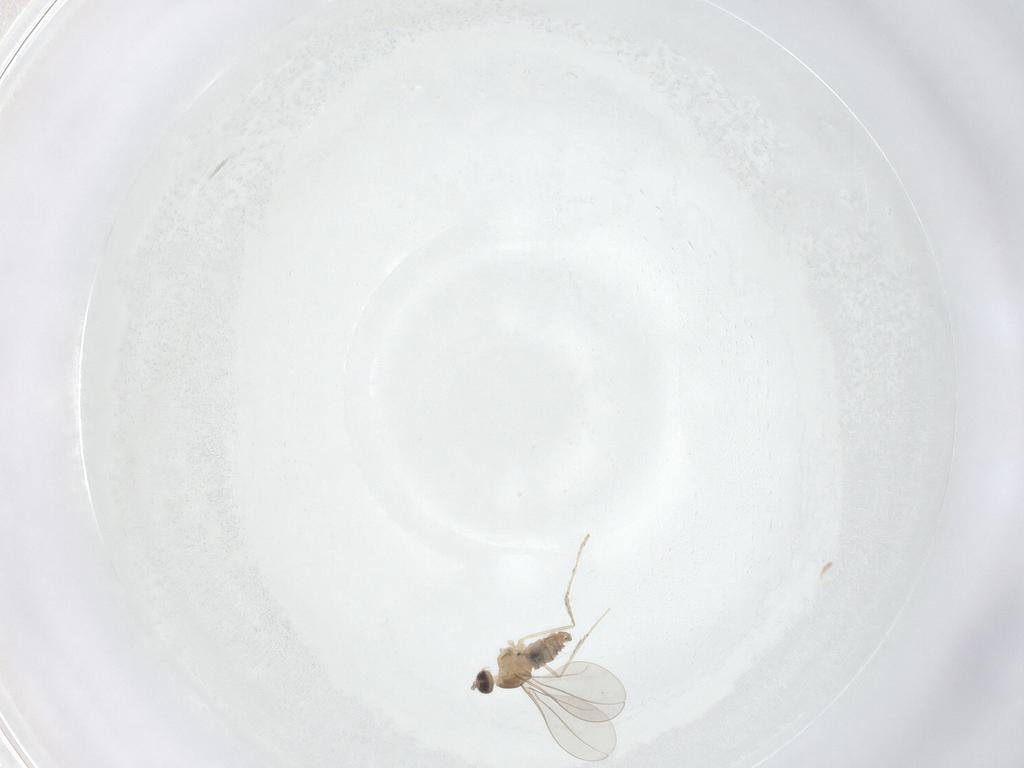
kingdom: Animalia
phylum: Arthropoda
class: Insecta
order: Diptera
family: Cecidomyiidae
